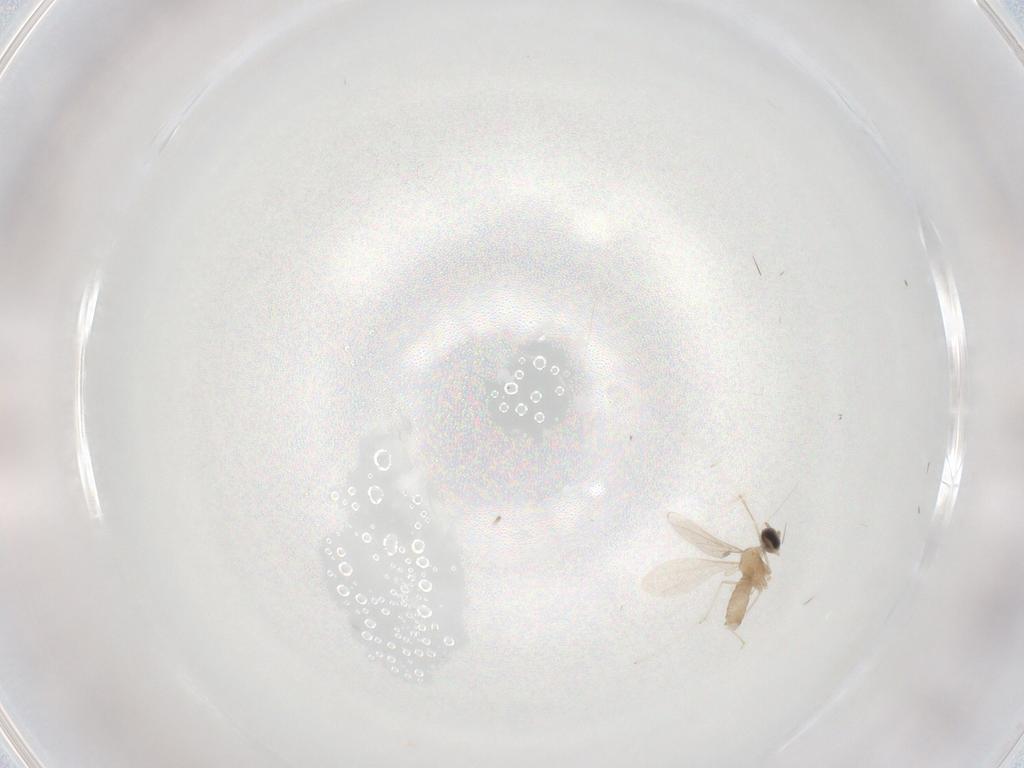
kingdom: Animalia
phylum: Arthropoda
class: Insecta
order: Diptera
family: Cecidomyiidae
